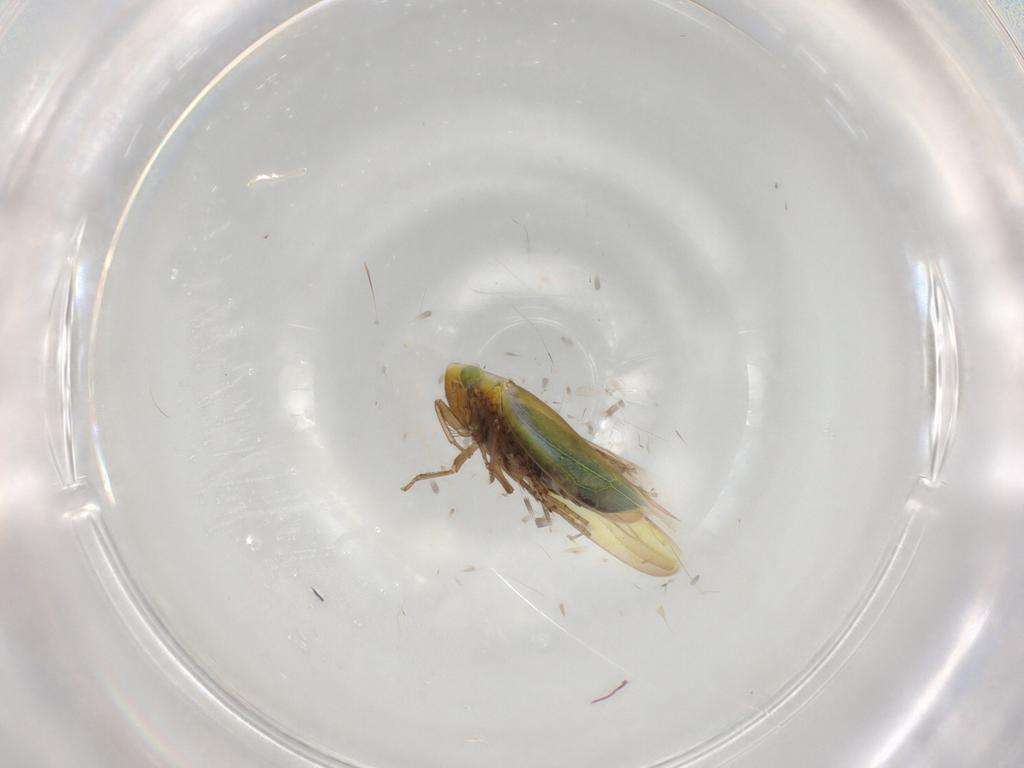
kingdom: Animalia
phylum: Arthropoda
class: Insecta
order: Hemiptera
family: Cicadellidae
